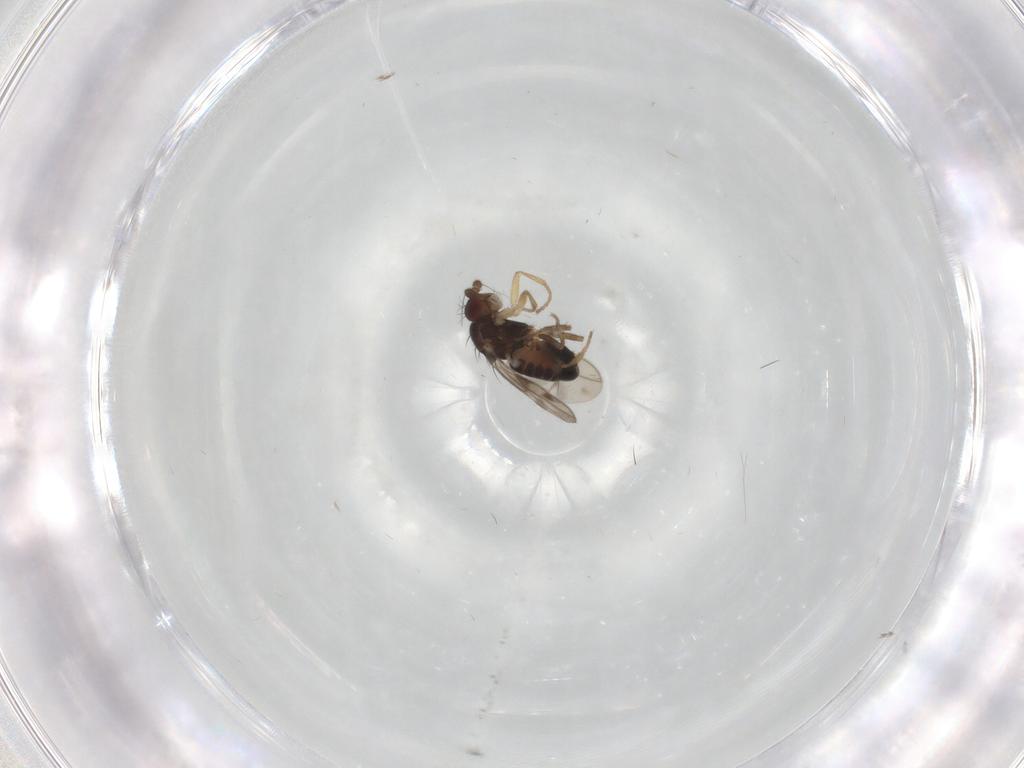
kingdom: Animalia
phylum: Arthropoda
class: Insecta
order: Diptera
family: Sphaeroceridae
